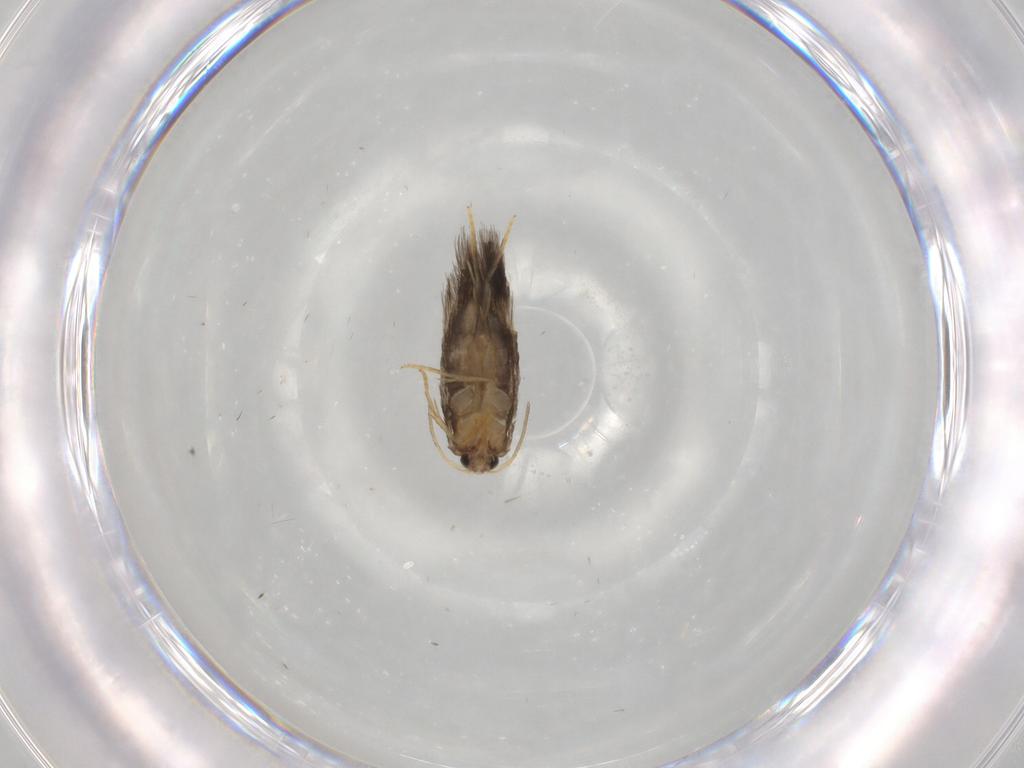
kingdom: Animalia
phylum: Arthropoda
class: Insecta
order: Lepidoptera
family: Nepticulidae
